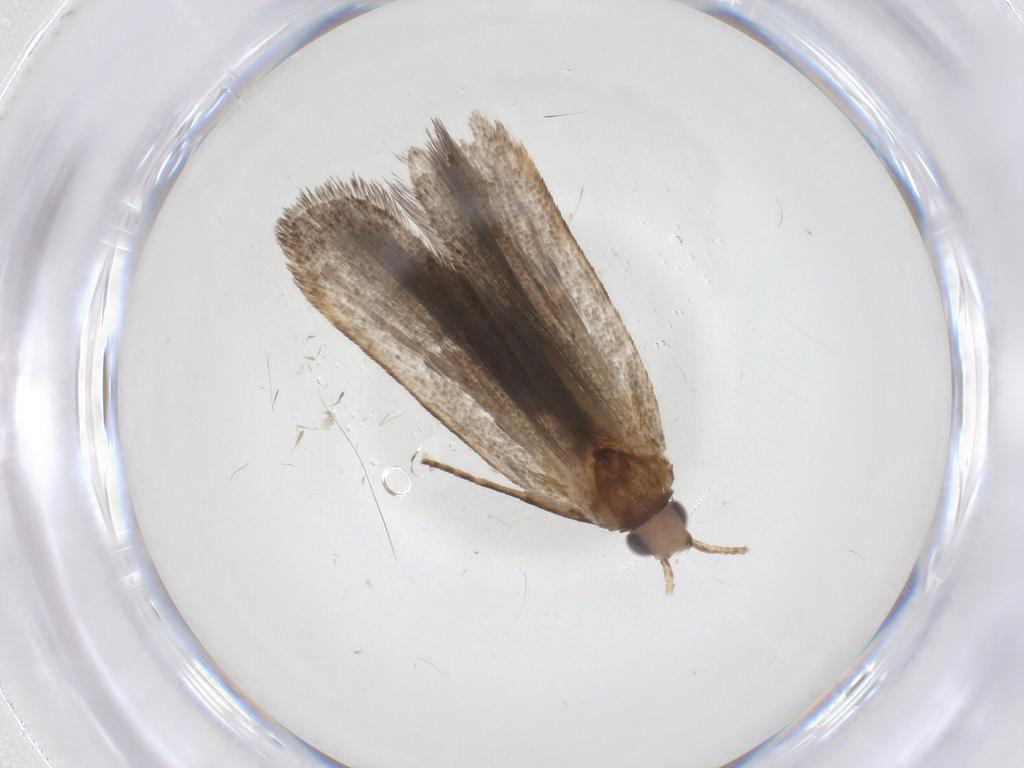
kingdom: Animalia
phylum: Arthropoda
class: Insecta
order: Lepidoptera
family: Gelechiidae
